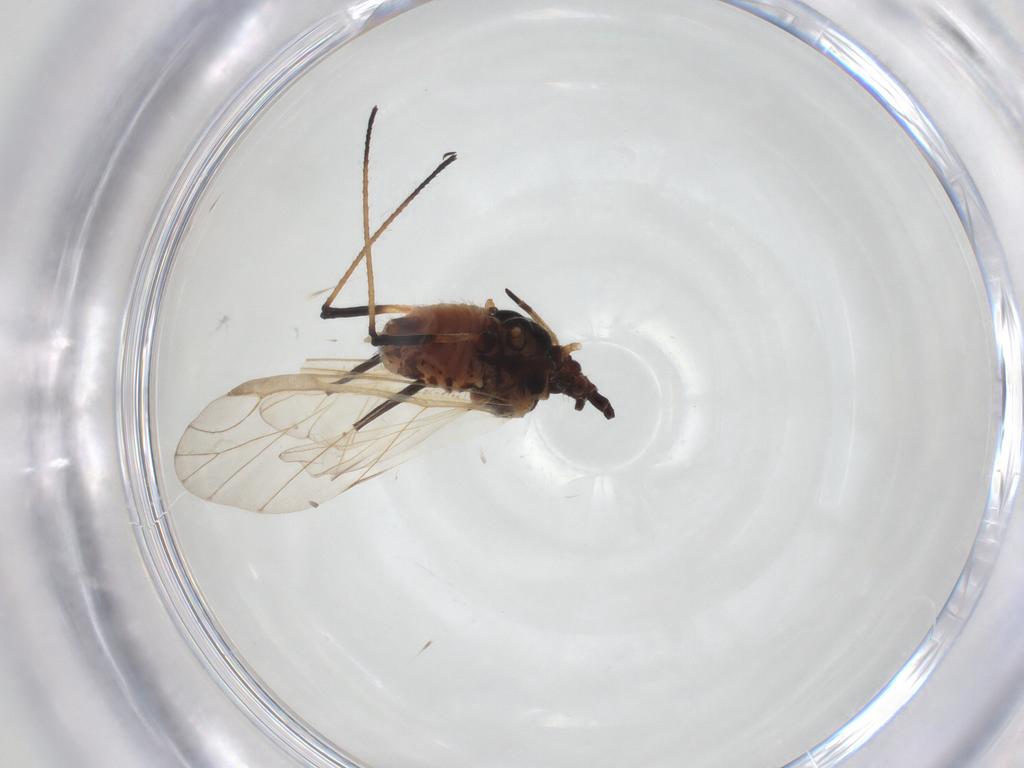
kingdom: Animalia
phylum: Arthropoda
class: Insecta
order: Hemiptera
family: Aphididae
